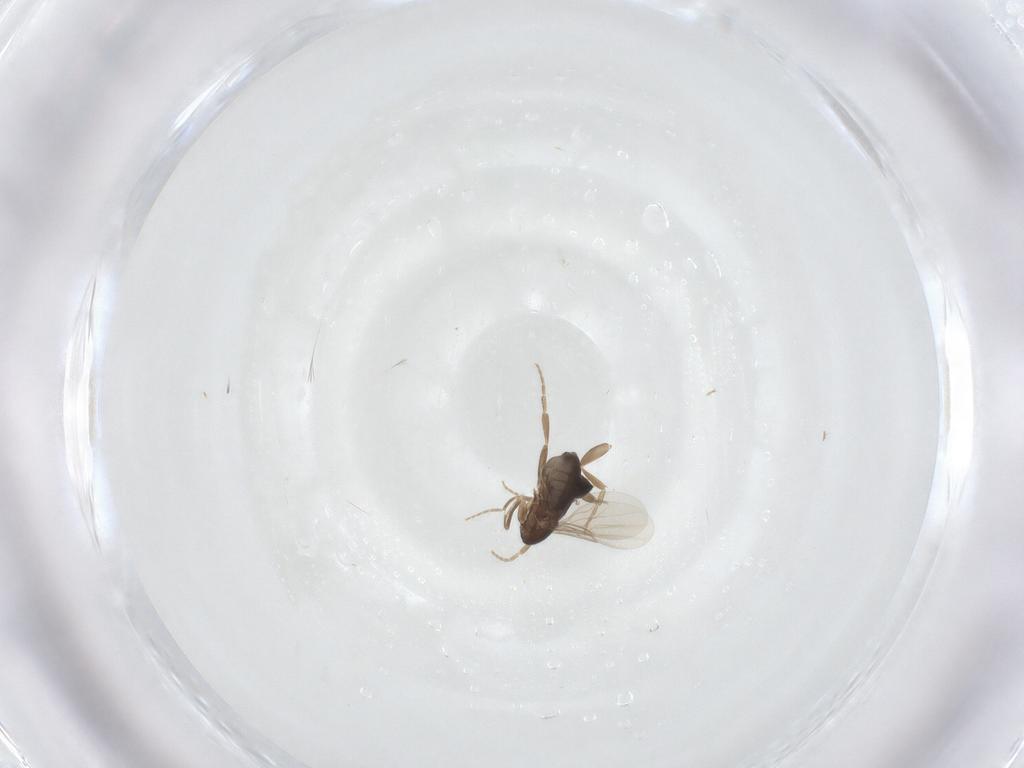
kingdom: Animalia
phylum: Arthropoda
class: Insecta
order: Diptera
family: Phoridae
